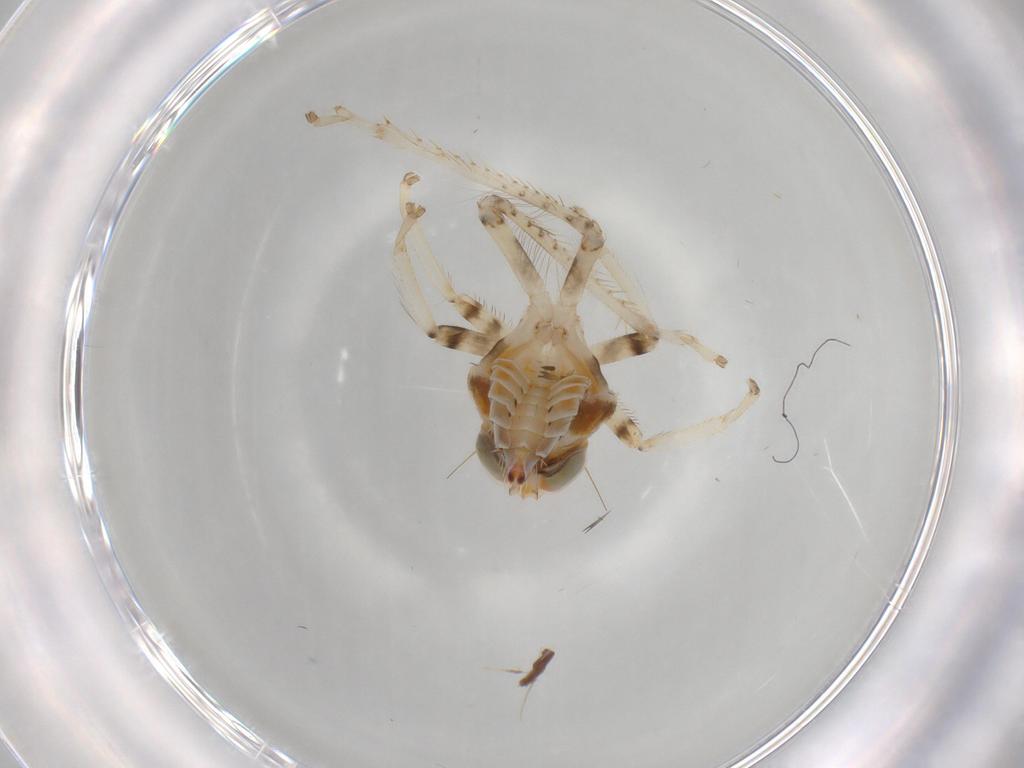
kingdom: Animalia
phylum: Arthropoda
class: Insecta
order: Hemiptera
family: Cicadellidae
